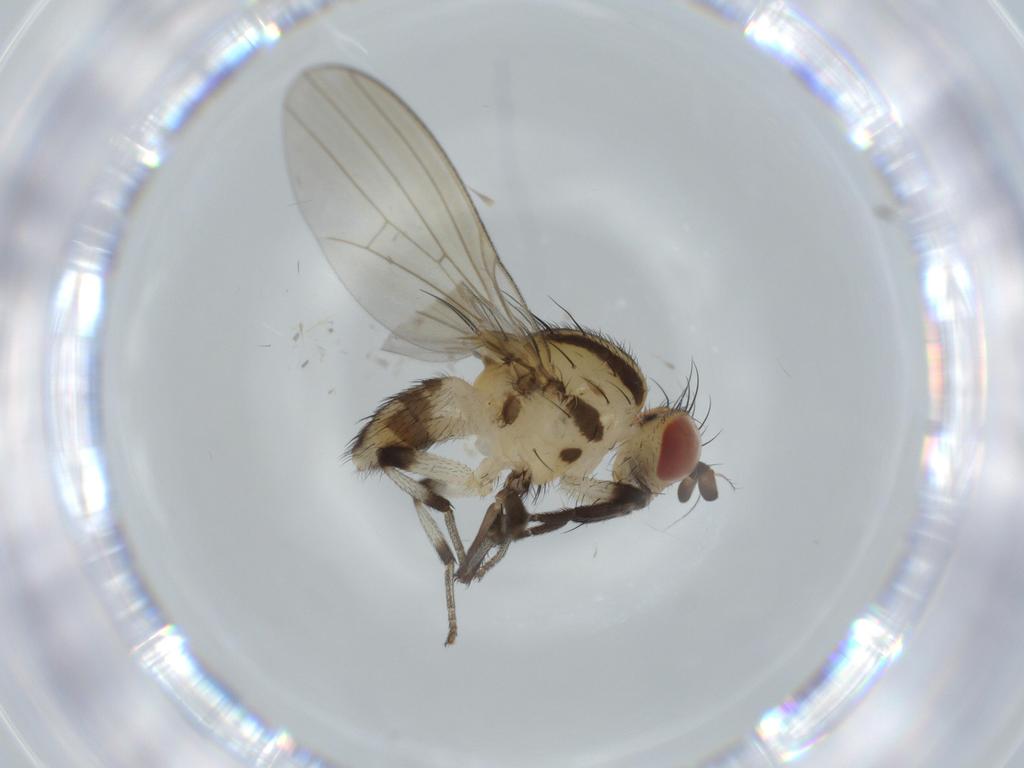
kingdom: Animalia
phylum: Arthropoda
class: Insecta
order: Diptera
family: Lauxaniidae
